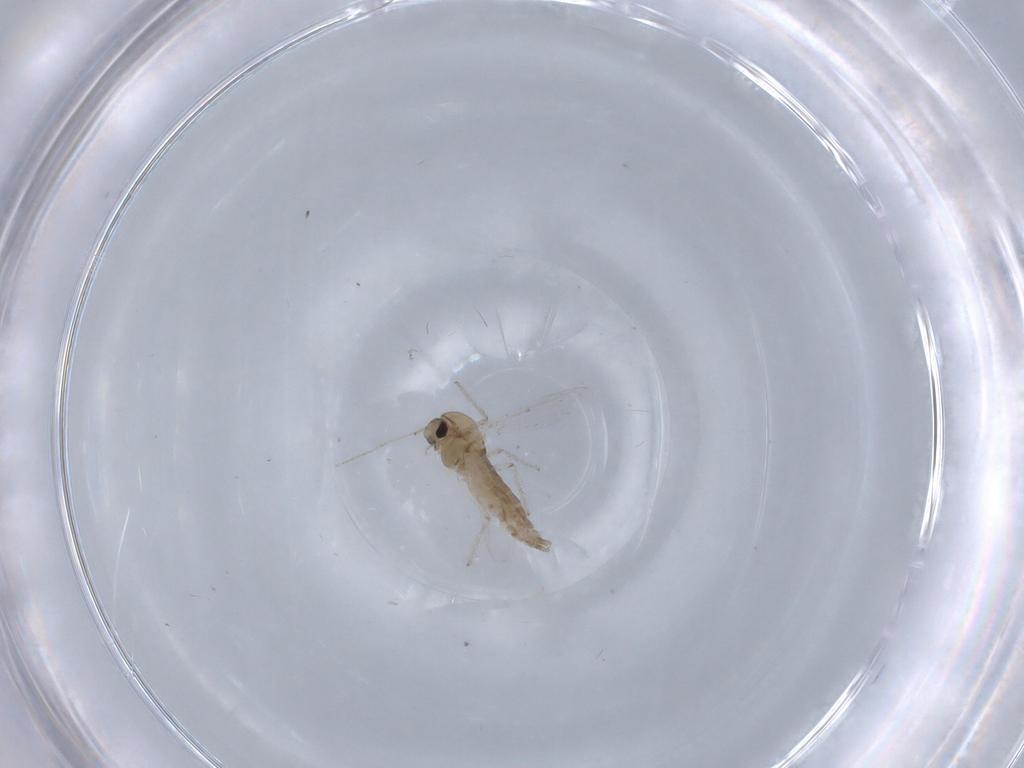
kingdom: Animalia
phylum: Arthropoda
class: Insecta
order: Diptera
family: Chironomidae
